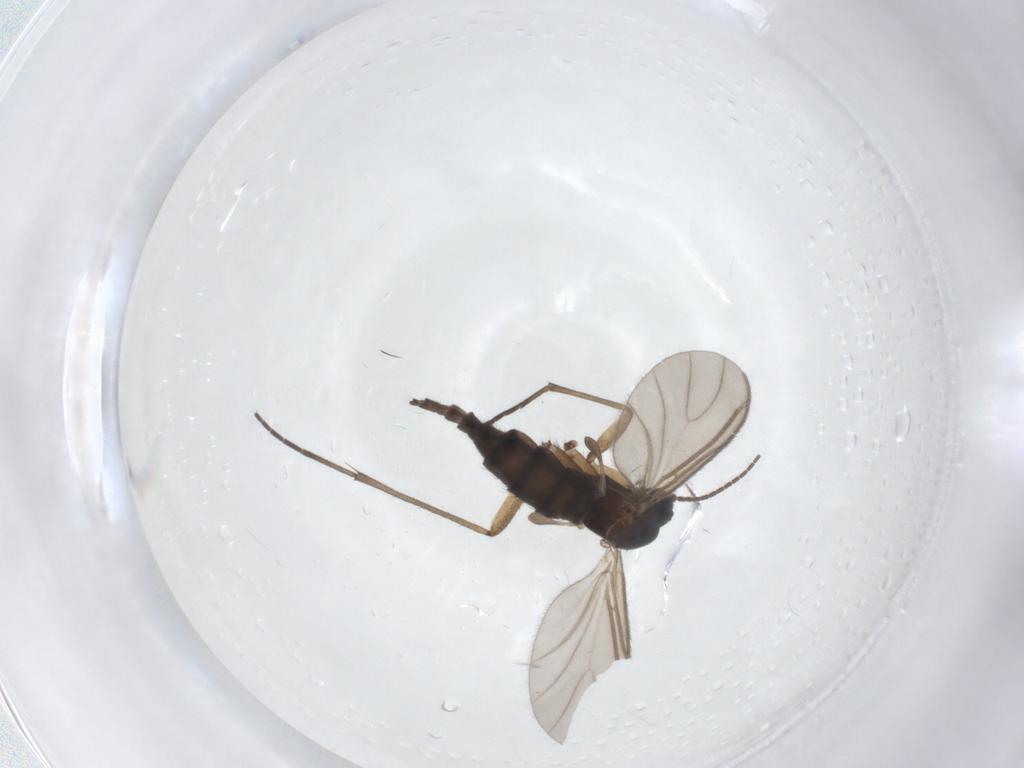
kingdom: Animalia
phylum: Arthropoda
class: Insecta
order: Diptera
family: Sciaridae
